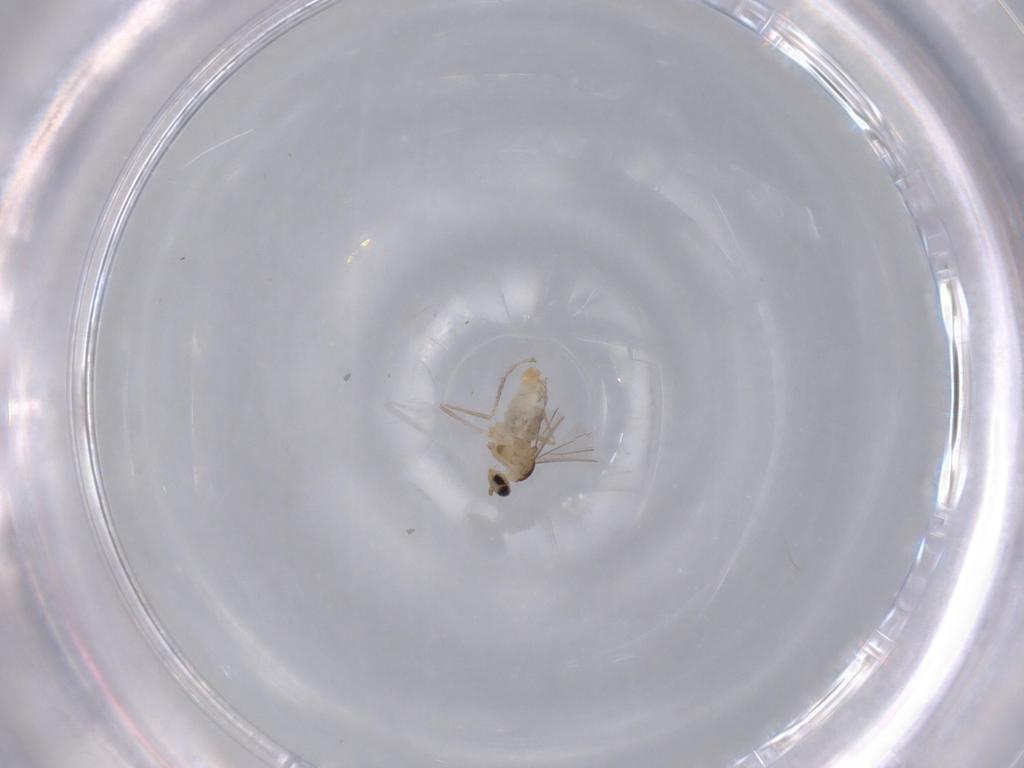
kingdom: Animalia
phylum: Arthropoda
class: Insecta
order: Diptera
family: Cecidomyiidae
